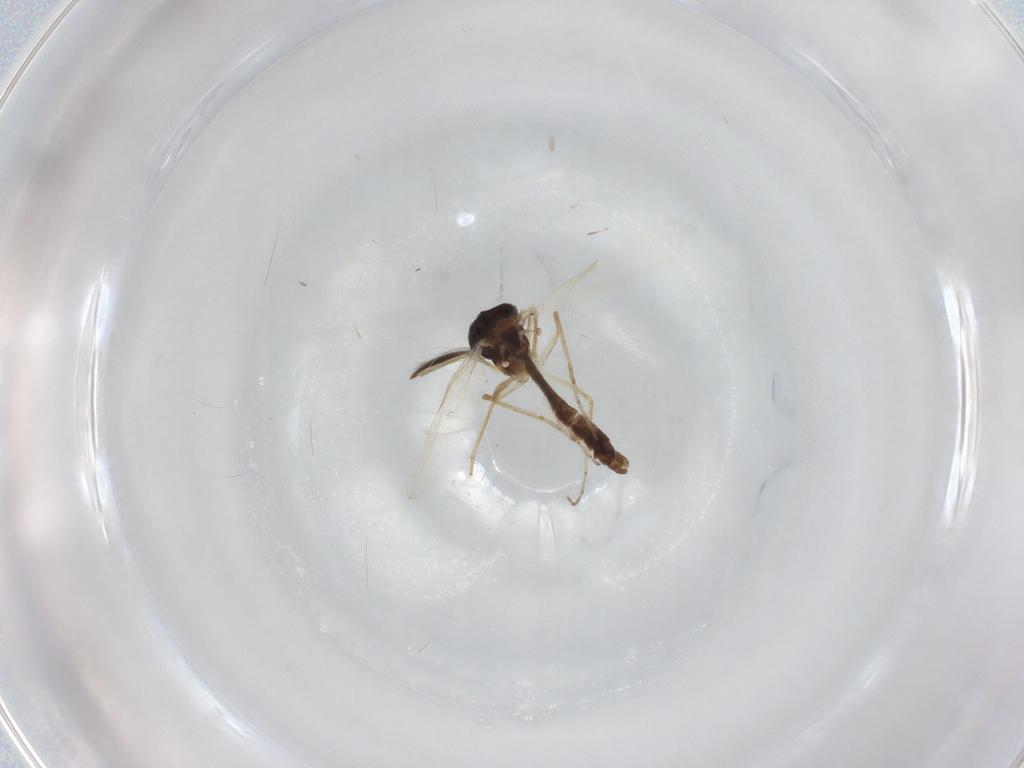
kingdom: Animalia
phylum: Arthropoda
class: Insecta
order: Diptera
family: Ceratopogonidae
